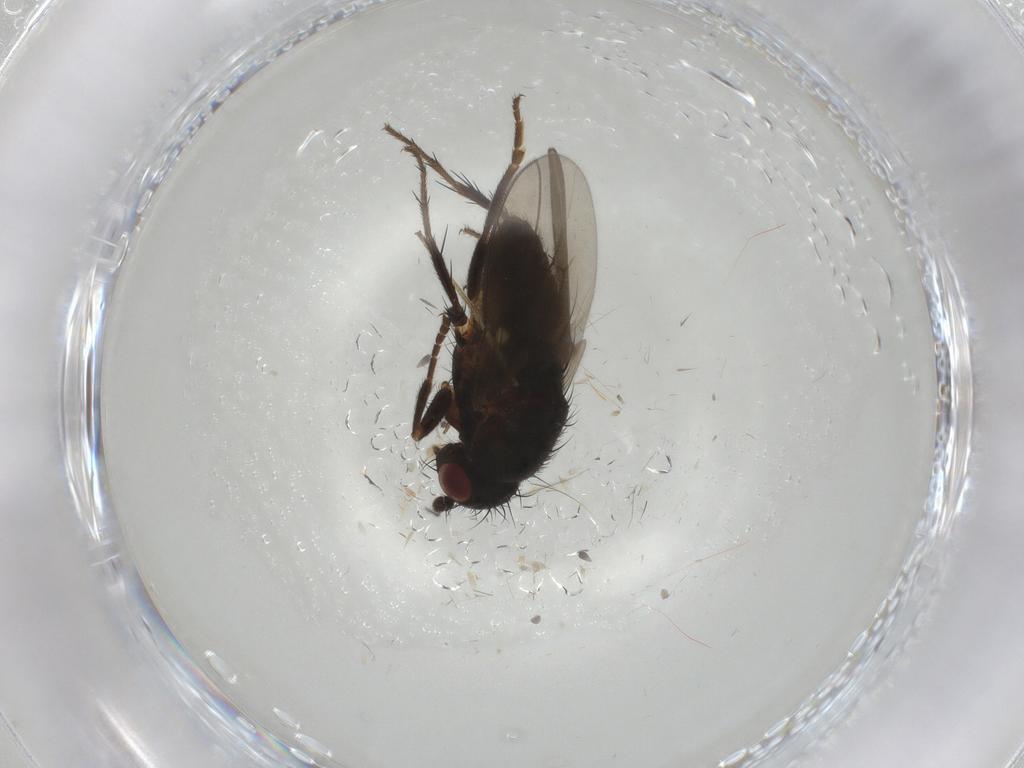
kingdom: Animalia
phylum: Arthropoda
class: Insecta
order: Diptera
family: Sphaeroceridae
